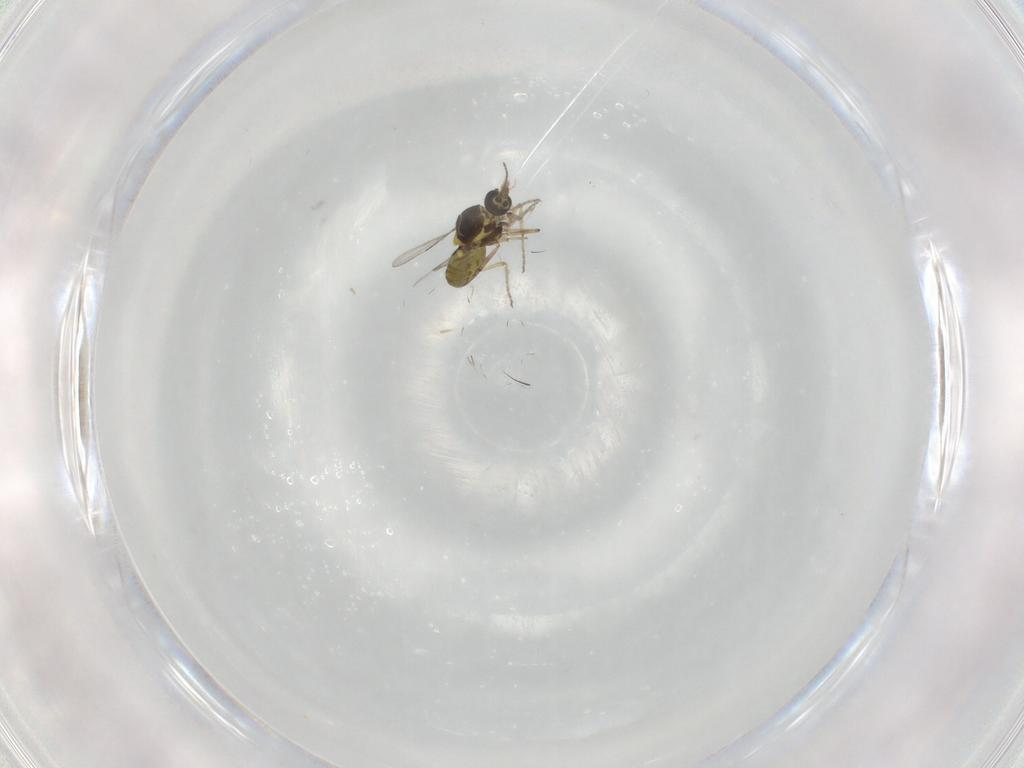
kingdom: Animalia
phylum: Arthropoda
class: Insecta
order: Diptera
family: Ceratopogonidae
